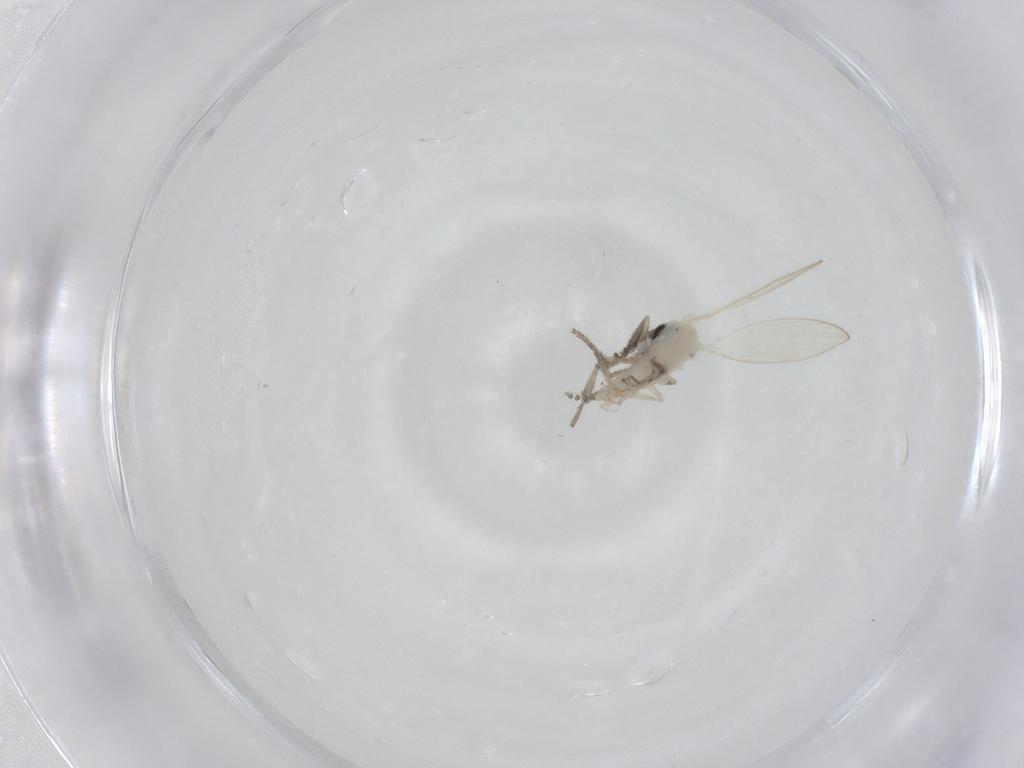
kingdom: Animalia
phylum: Arthropoda
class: Insecta
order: Diptera
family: Psychodidae
